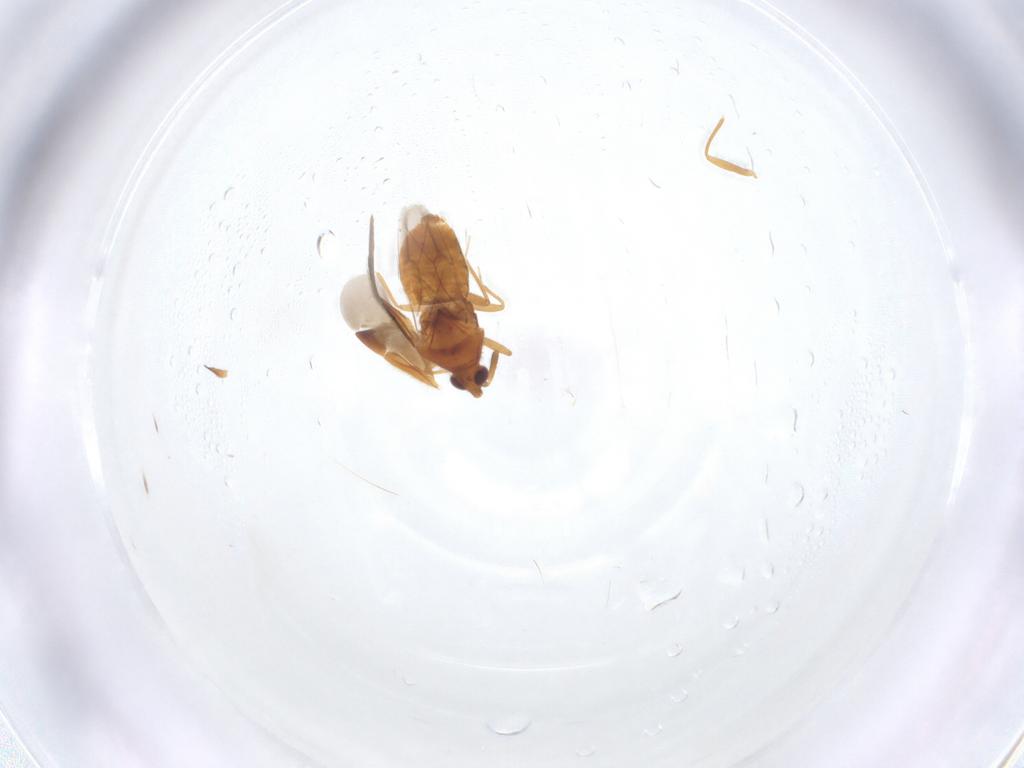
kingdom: Animalia
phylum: Arthropoda
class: Insecta
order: Hemiptera
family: Anthocoridae
